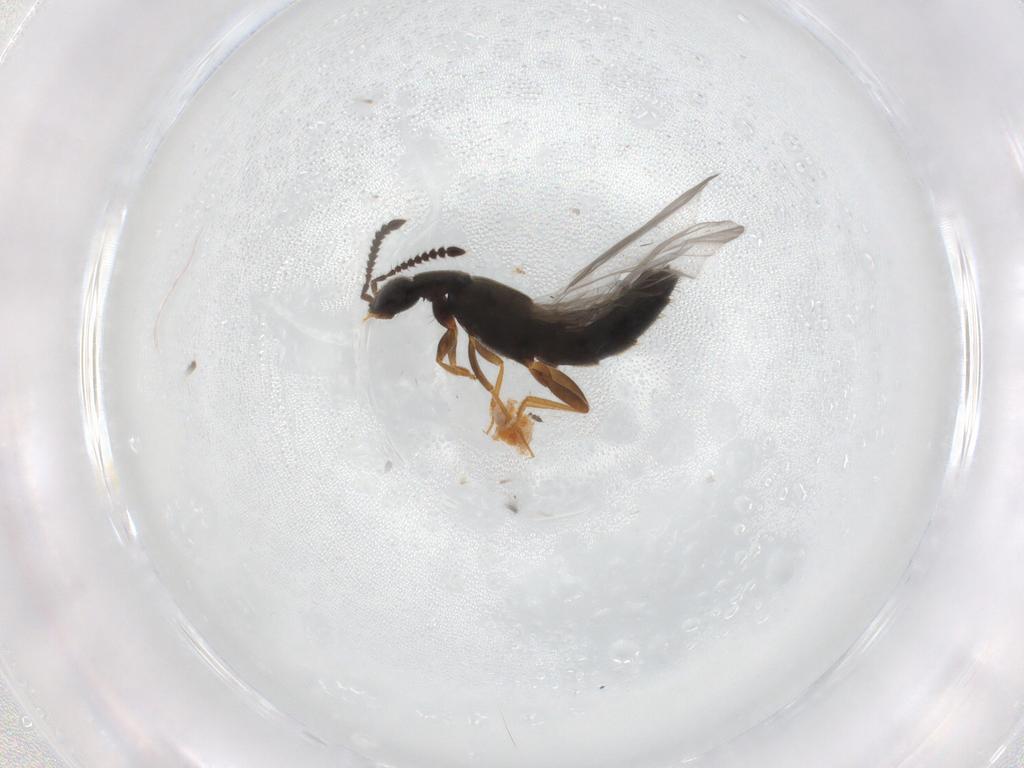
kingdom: Animalia
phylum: Arthropoda
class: Insecta
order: Coleoptera
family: Staphylinidae
